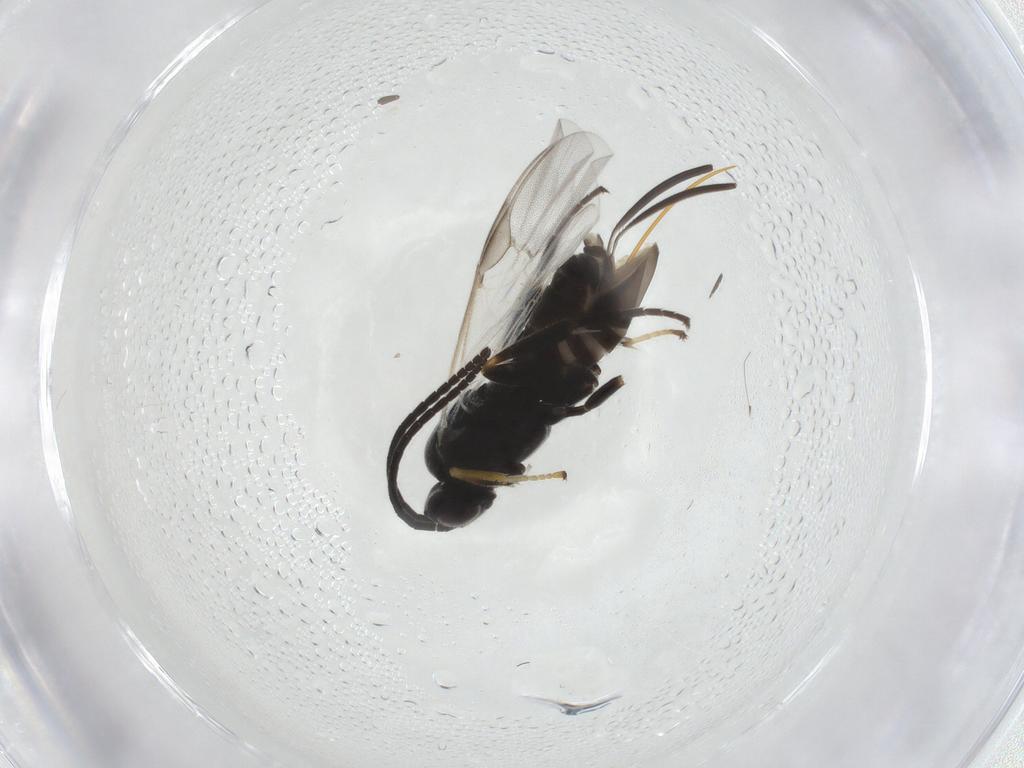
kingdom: Animalia
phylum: Arthropoda
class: Insecta
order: Hymenoptera
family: Braconidae
